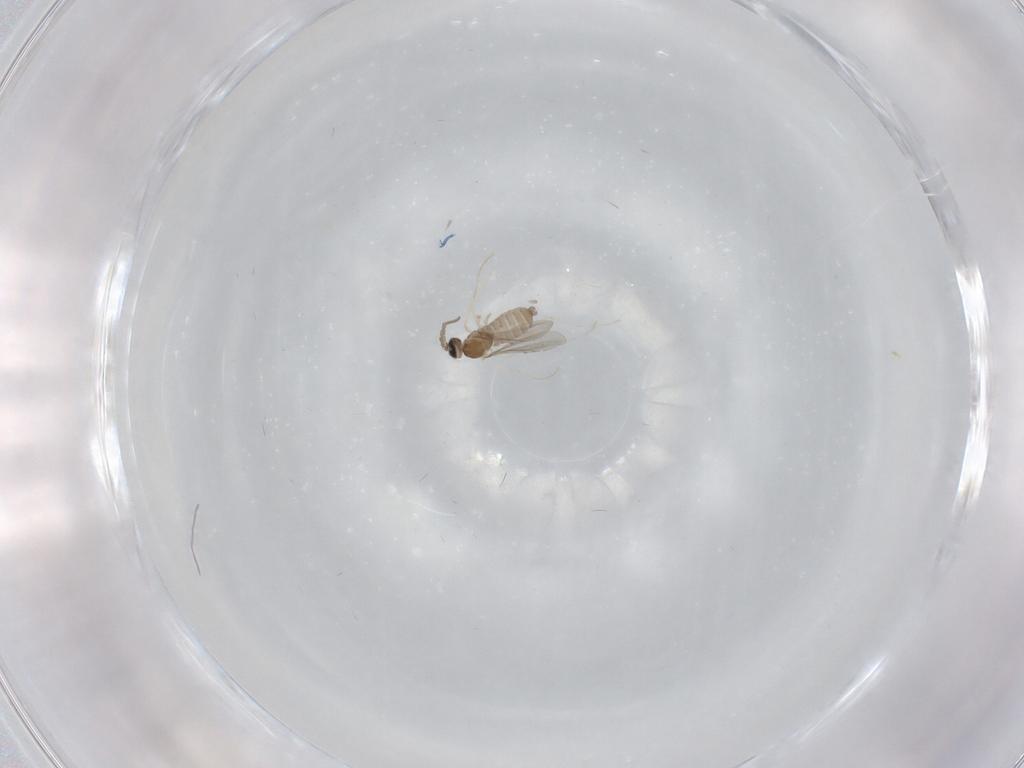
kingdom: Animalia
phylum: Arthropoda
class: Insecta
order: Diptera
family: Cecidomyiidae
